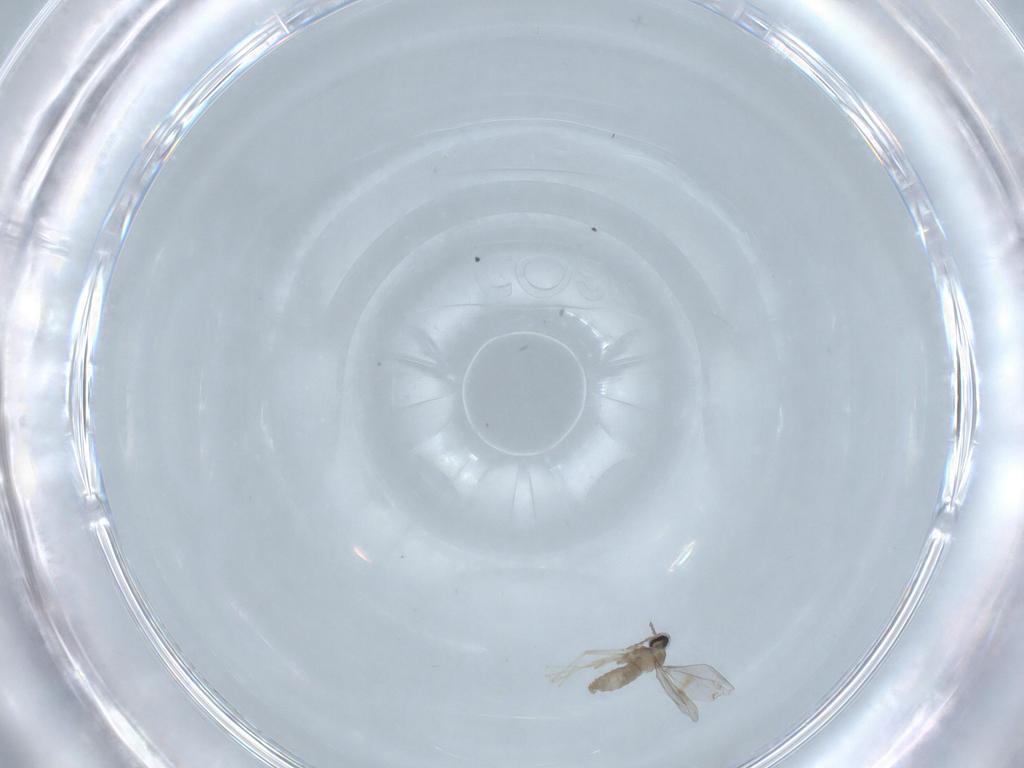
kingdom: Animalia
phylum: Arthropoda
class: Insecta
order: Diptera
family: Cecidomyiidae
